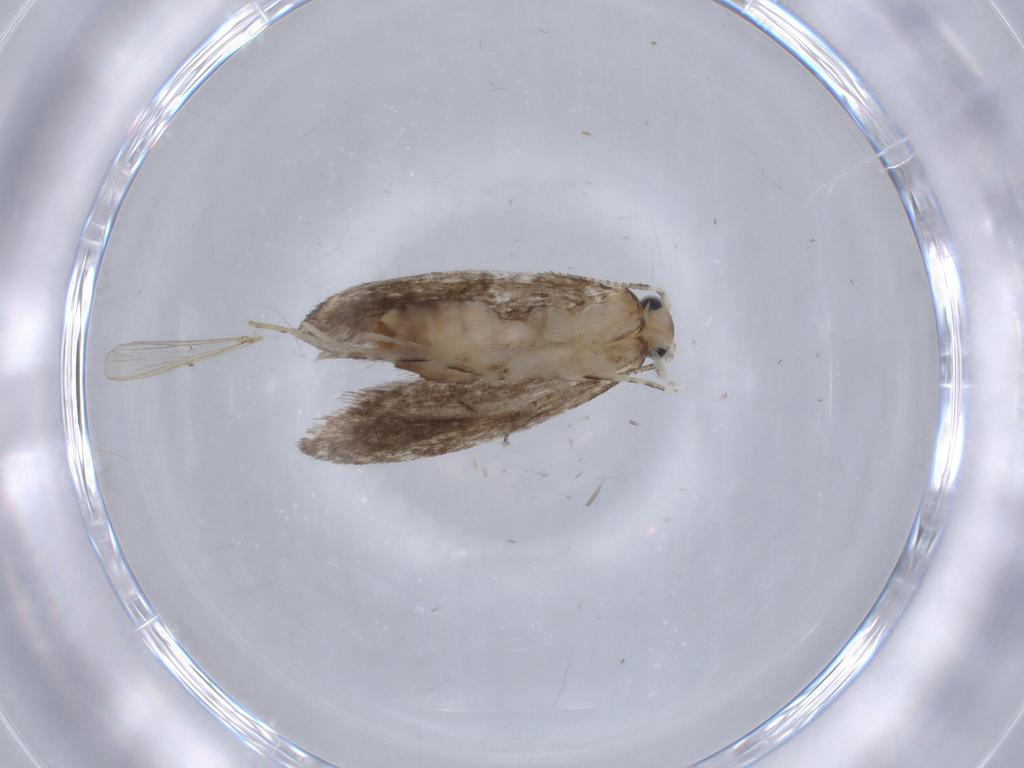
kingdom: Animalia
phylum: Arthropoda
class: Insecta
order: Lepidoptera
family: Tineidae
